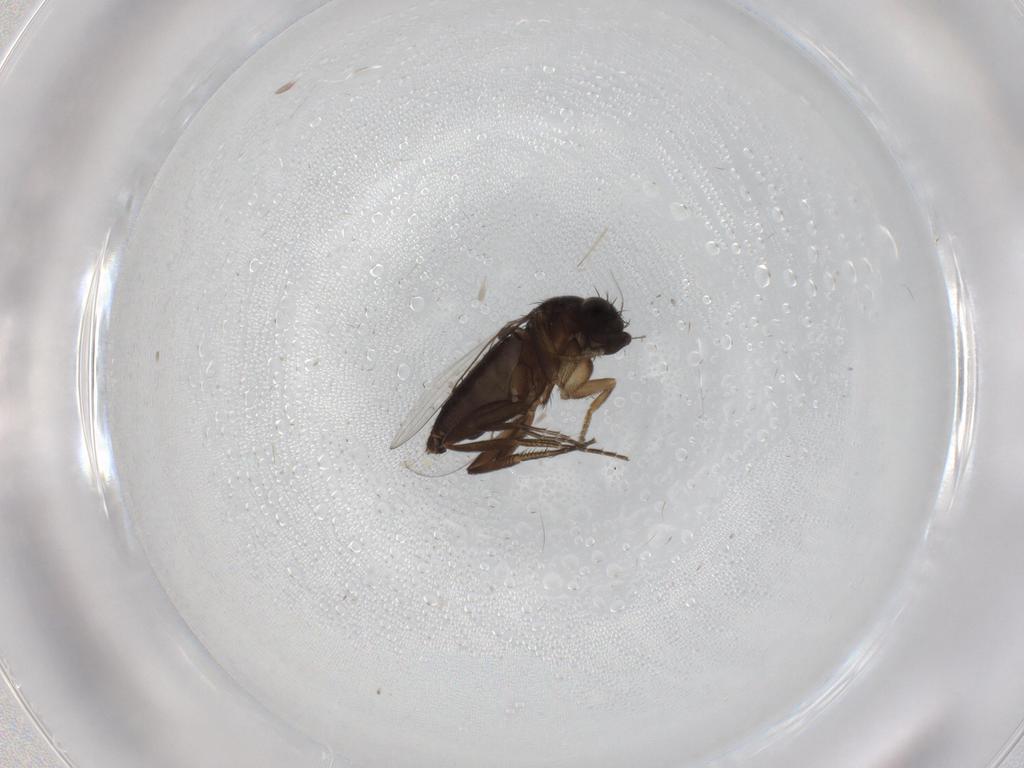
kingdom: Animalia
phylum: Arthropoda
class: Insecta
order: Diptera
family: Phoridae
